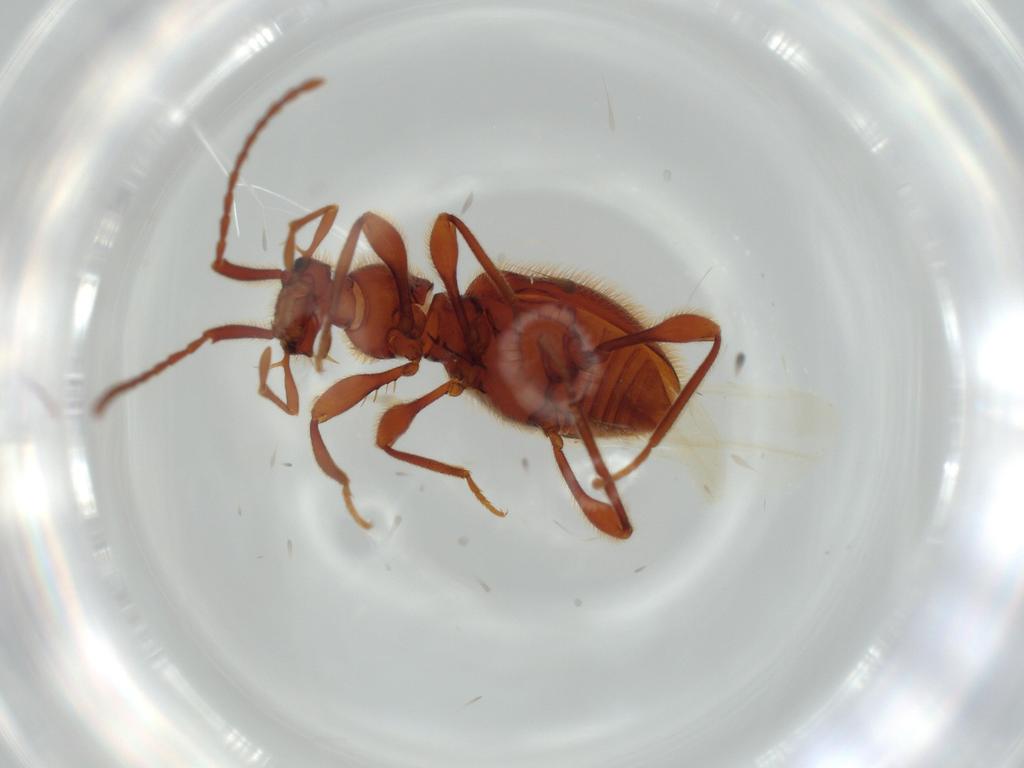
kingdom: Animalia
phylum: Arthropoda
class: Insecta
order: Coleoptera
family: Staphylinidae
